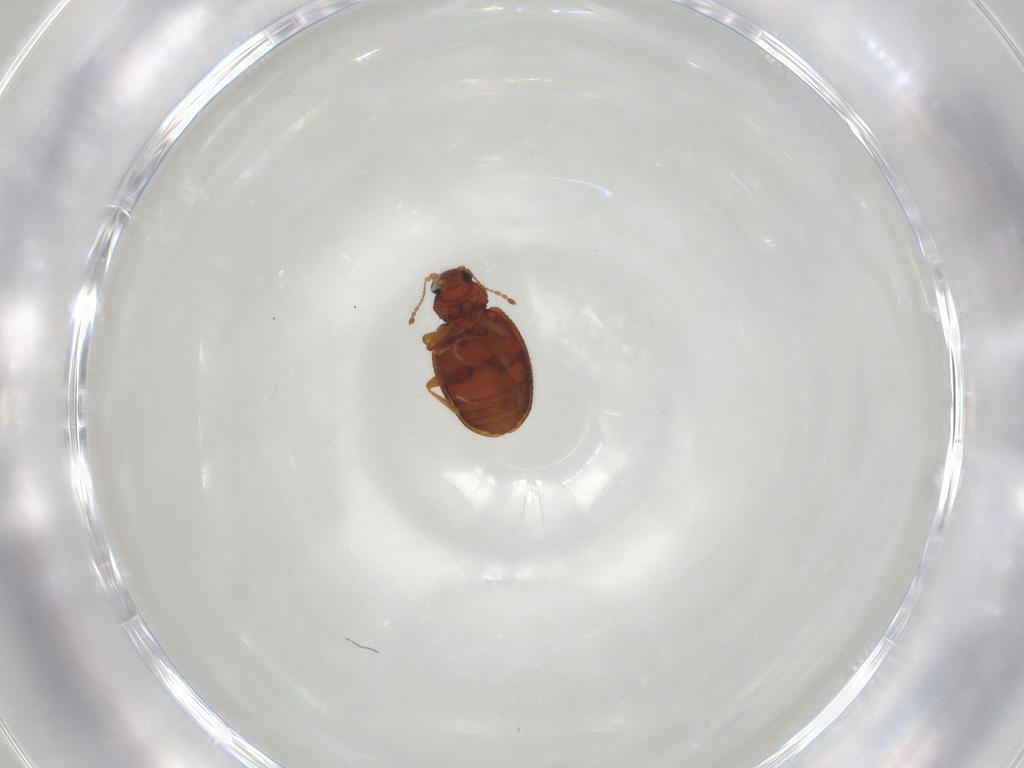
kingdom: Animalia
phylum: Arthropoda
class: Insecta
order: Coleoptera
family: Latridiidae
